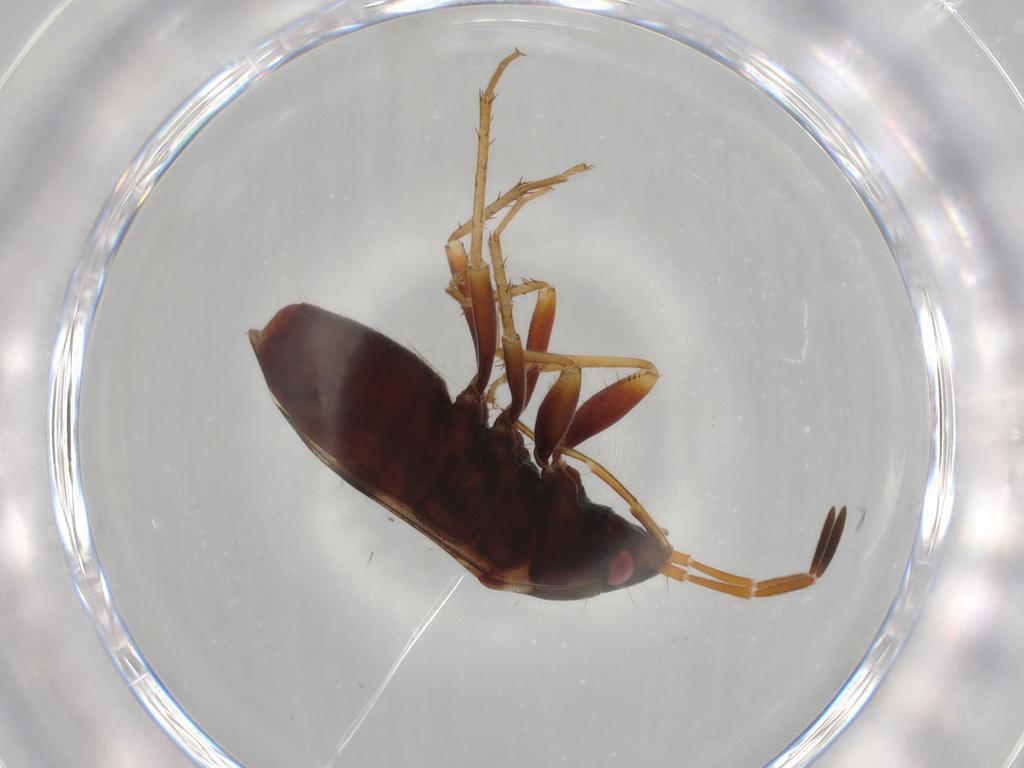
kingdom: Animalia
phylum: Arthropoda
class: Insecta
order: Hemiptera
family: Rhyparochromidae
